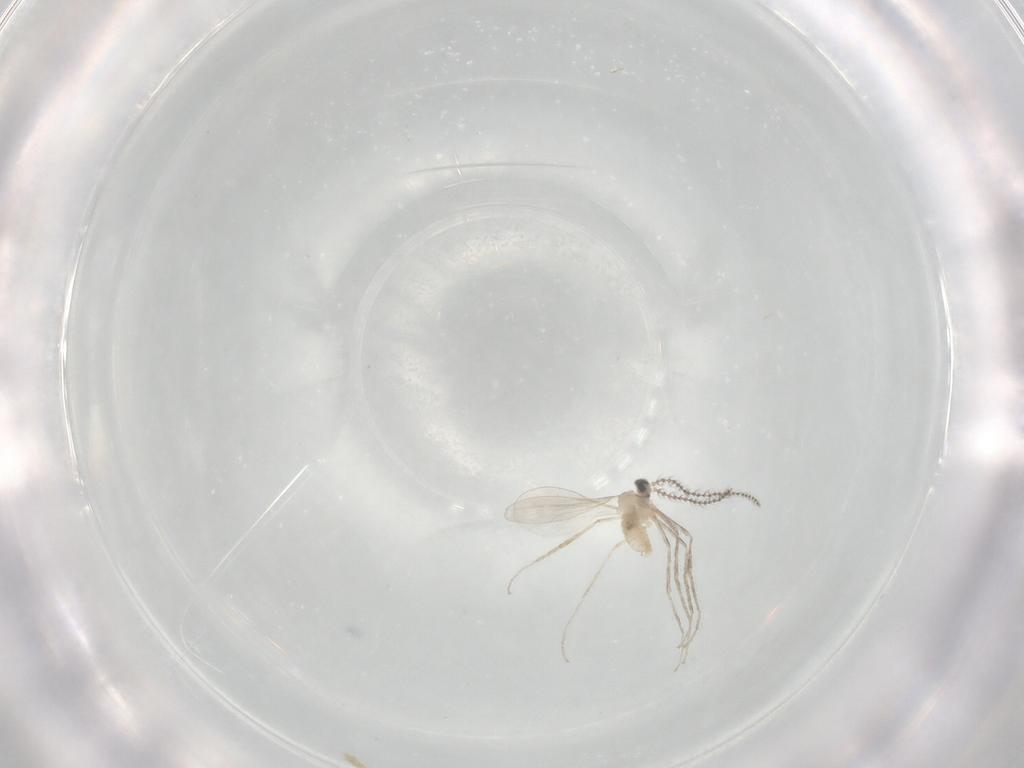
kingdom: Animalia
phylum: Arthropoda
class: Insecta
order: Diptera
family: Cecidomyiidae
